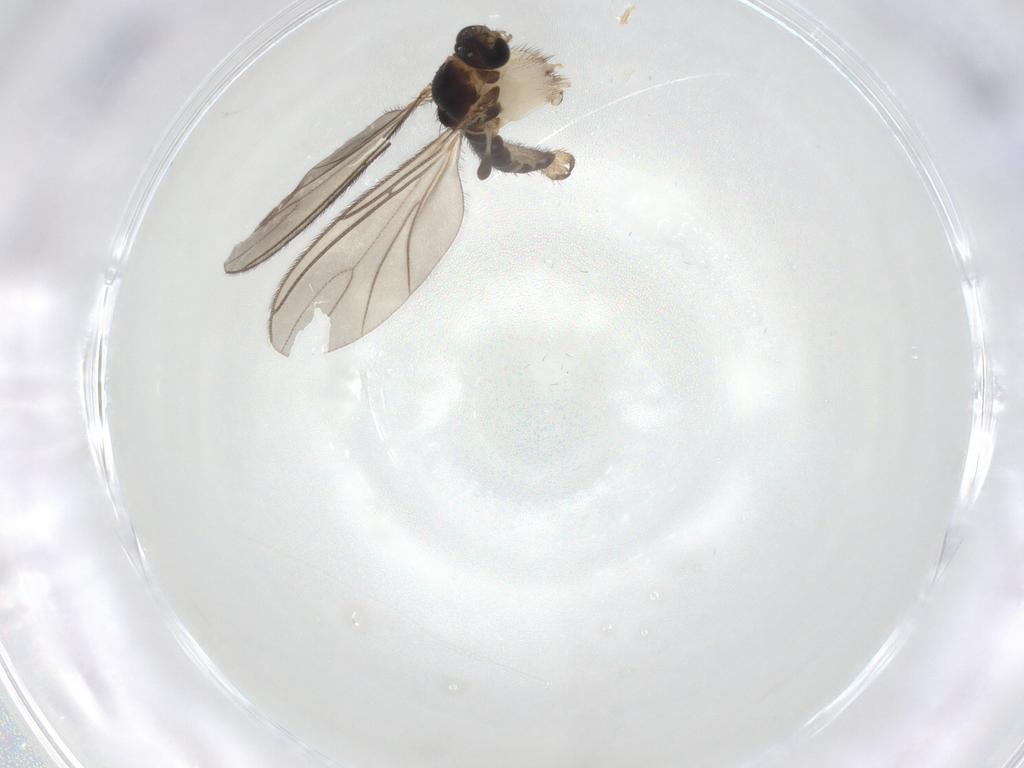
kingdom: Animalia
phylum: Arthropoda
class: Insecta
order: Diptera
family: Sciaridae
